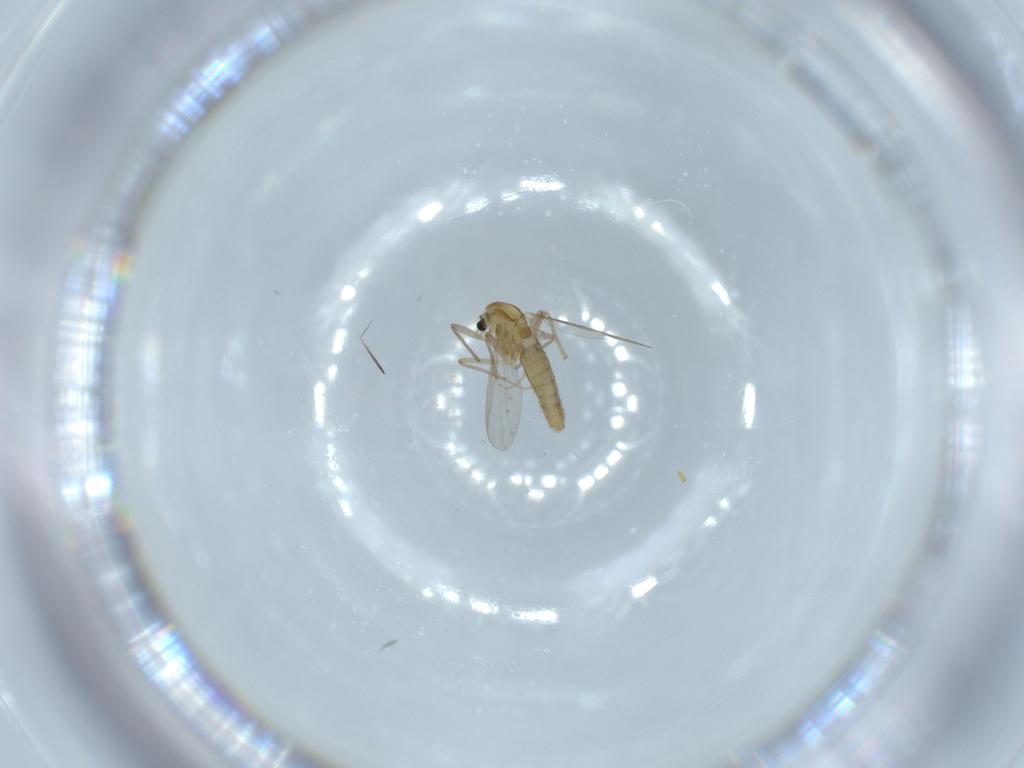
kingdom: Animalia
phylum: Arthropoda
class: Insecta
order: Diptera
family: Chironomidae
